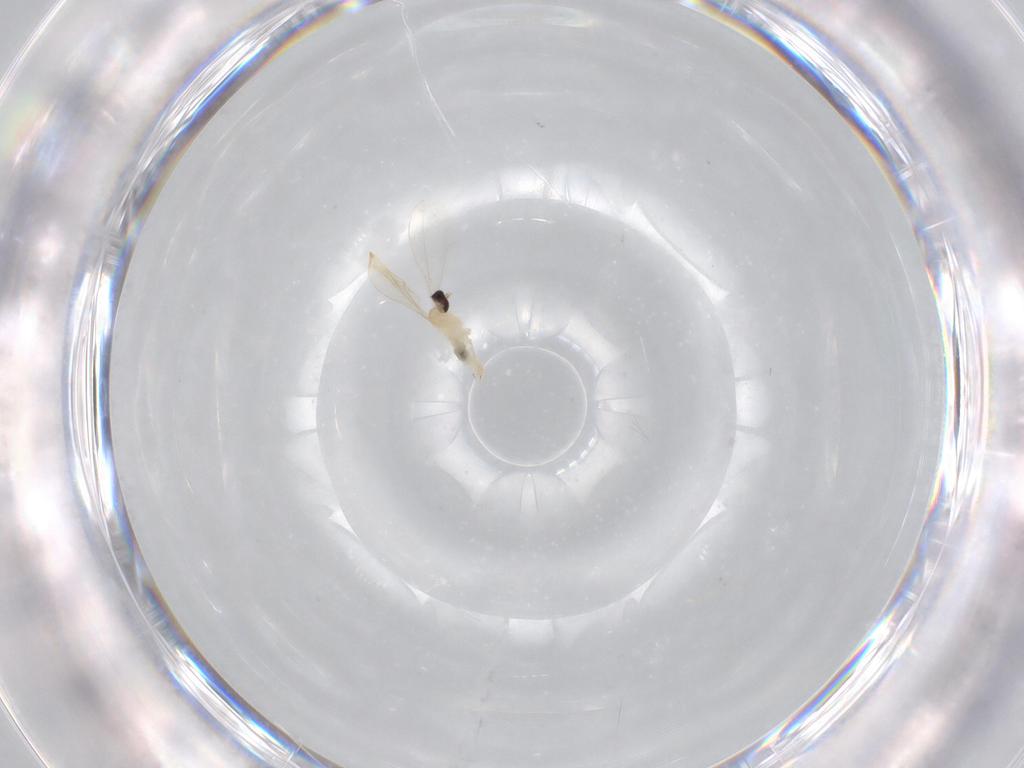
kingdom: Animalia
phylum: Arthropoda
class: Insecta
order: Diptera
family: Cecidomyiidae
